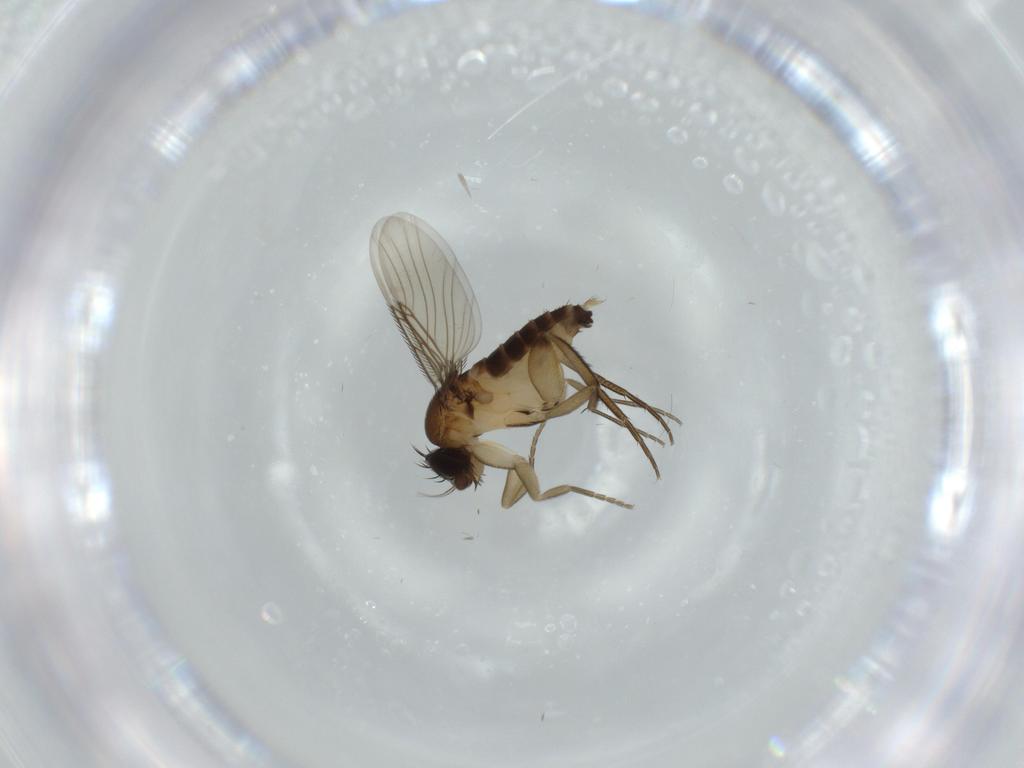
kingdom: Animalia
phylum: Arthropoda
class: Insecta
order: Diptera
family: Phoridae
